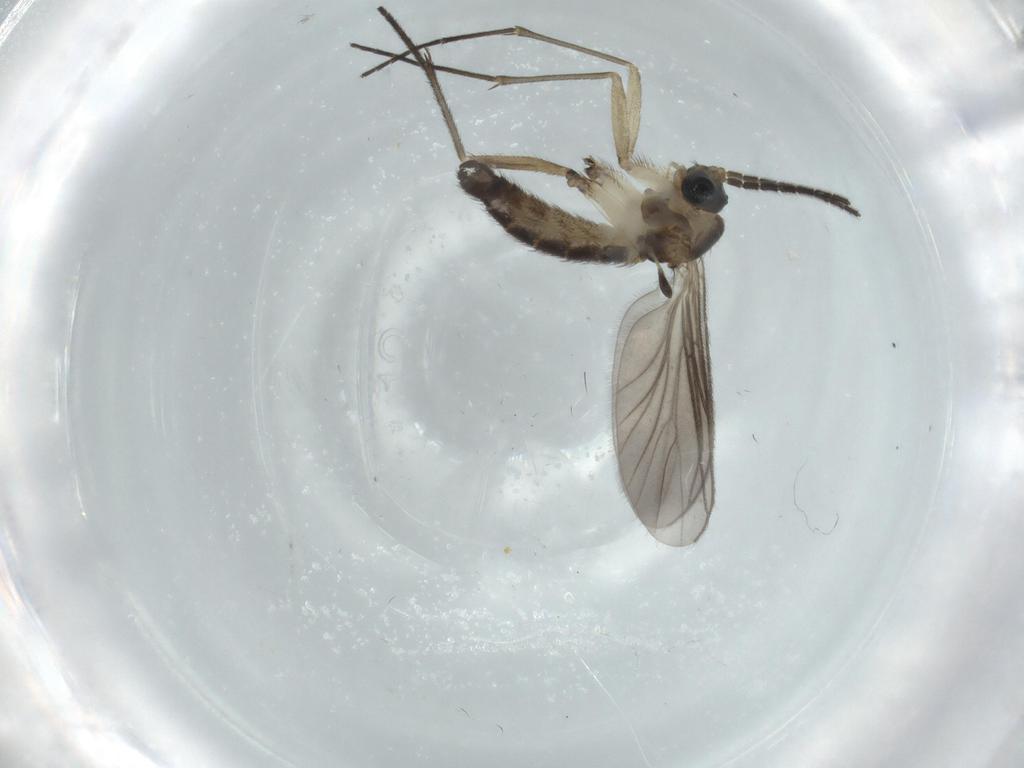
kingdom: Animalia
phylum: Arthropoda
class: Insecta
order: Diptera
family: Sciaridae
